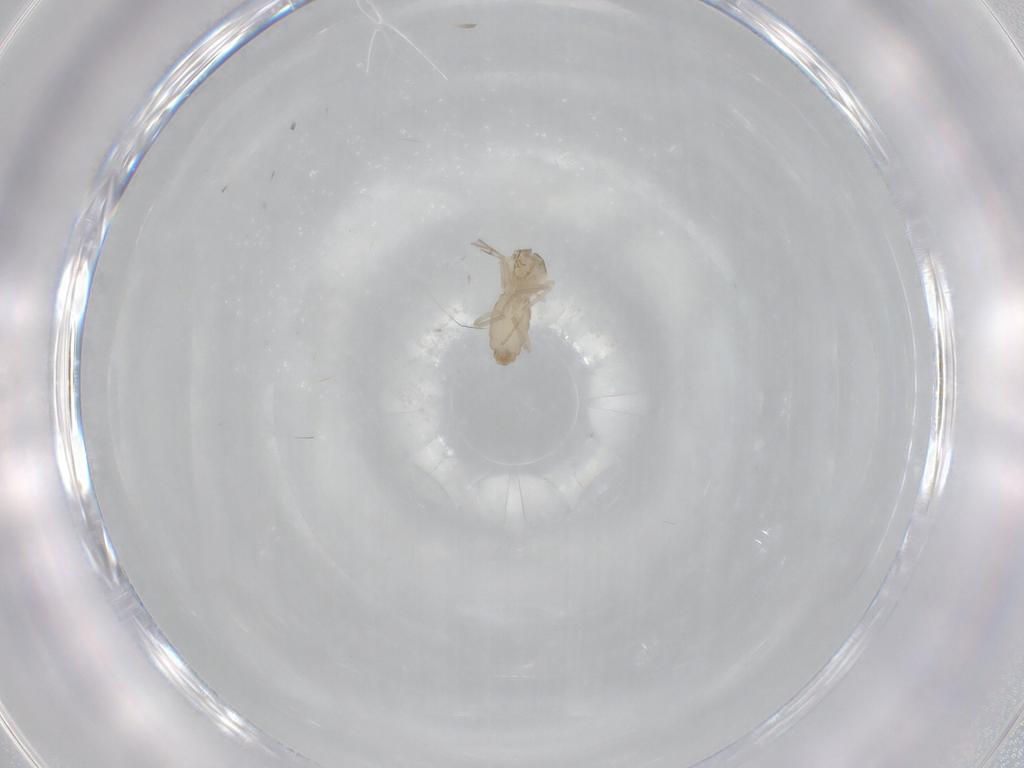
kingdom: Animalia
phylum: Arthropoda
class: Insecta
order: Diptera
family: Cecidomyiidae
